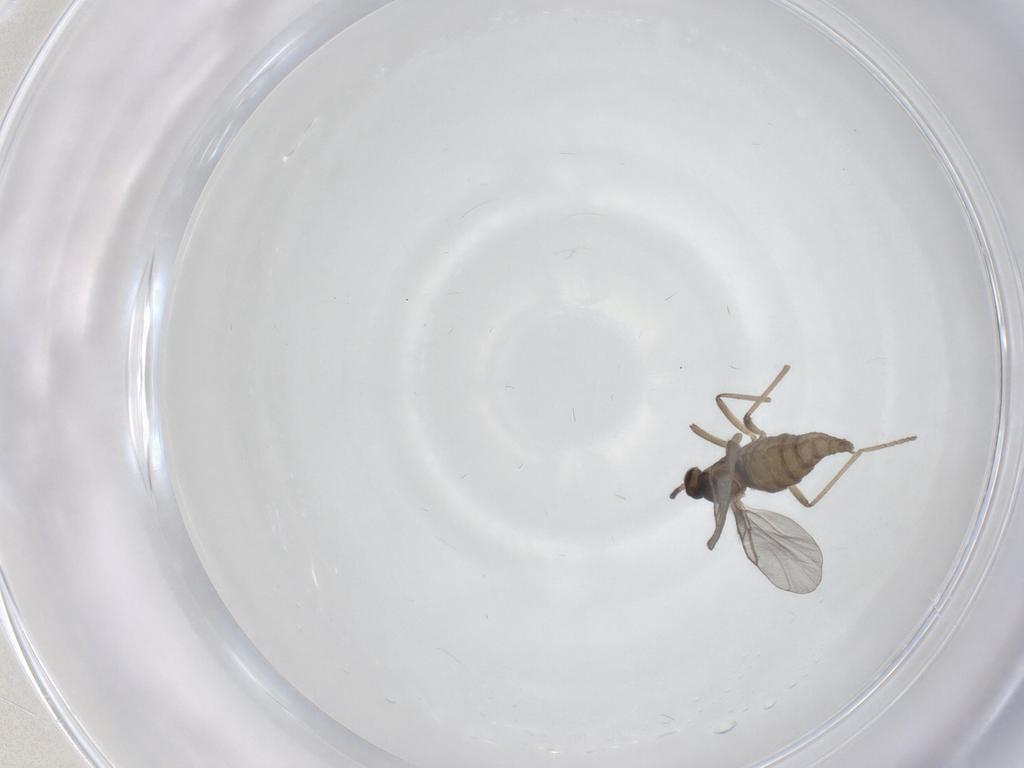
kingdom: Animalia
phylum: Arthropoda
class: Insecta
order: Diptera
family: Cecidomyiidae
